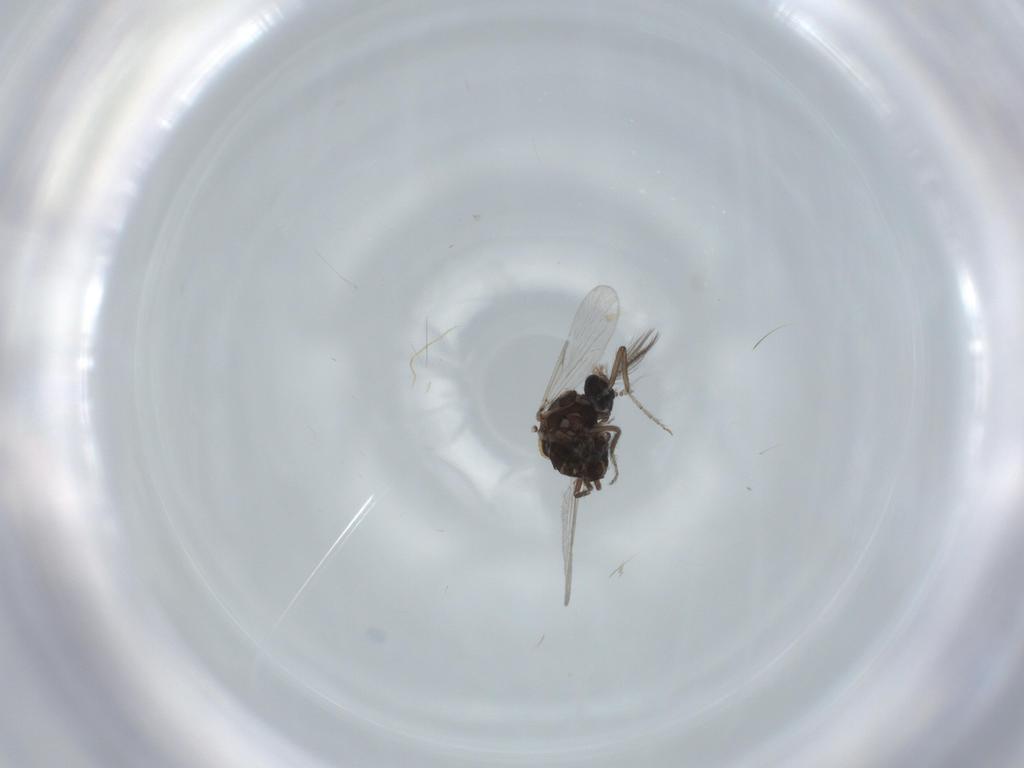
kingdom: Animalia
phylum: Arthropoda
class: Insecta
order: Diptera
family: Ceratopogonidae
